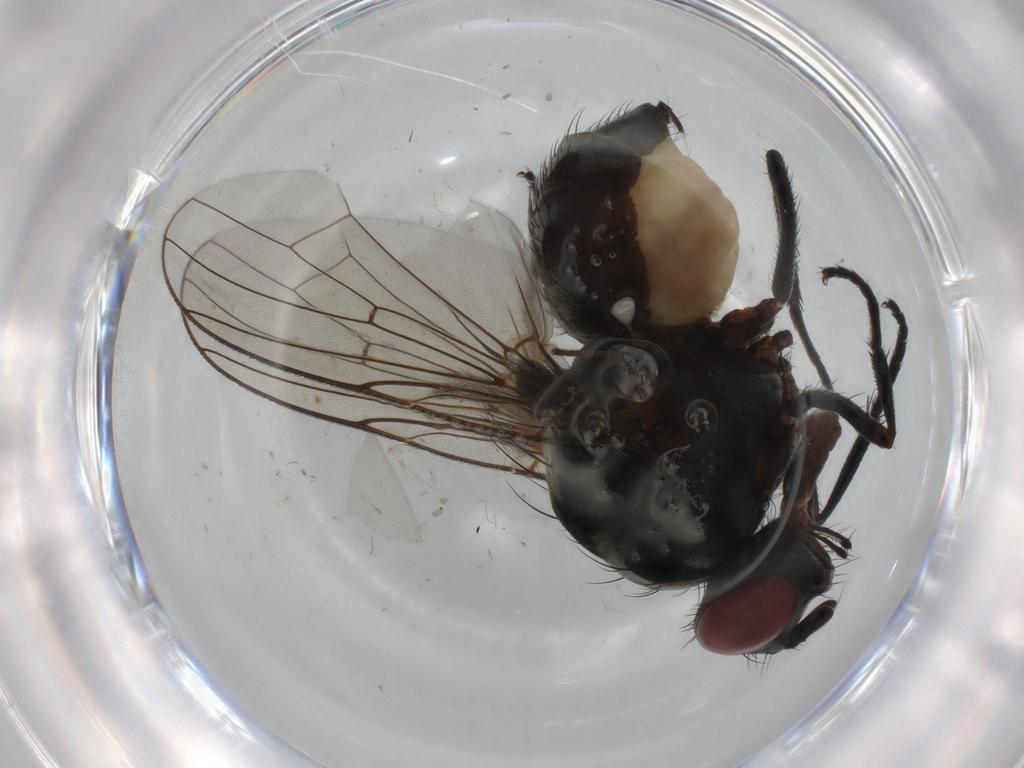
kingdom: Animalia
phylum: Arthropoda
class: Insecta
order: Diptera
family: Anthomyiidae
